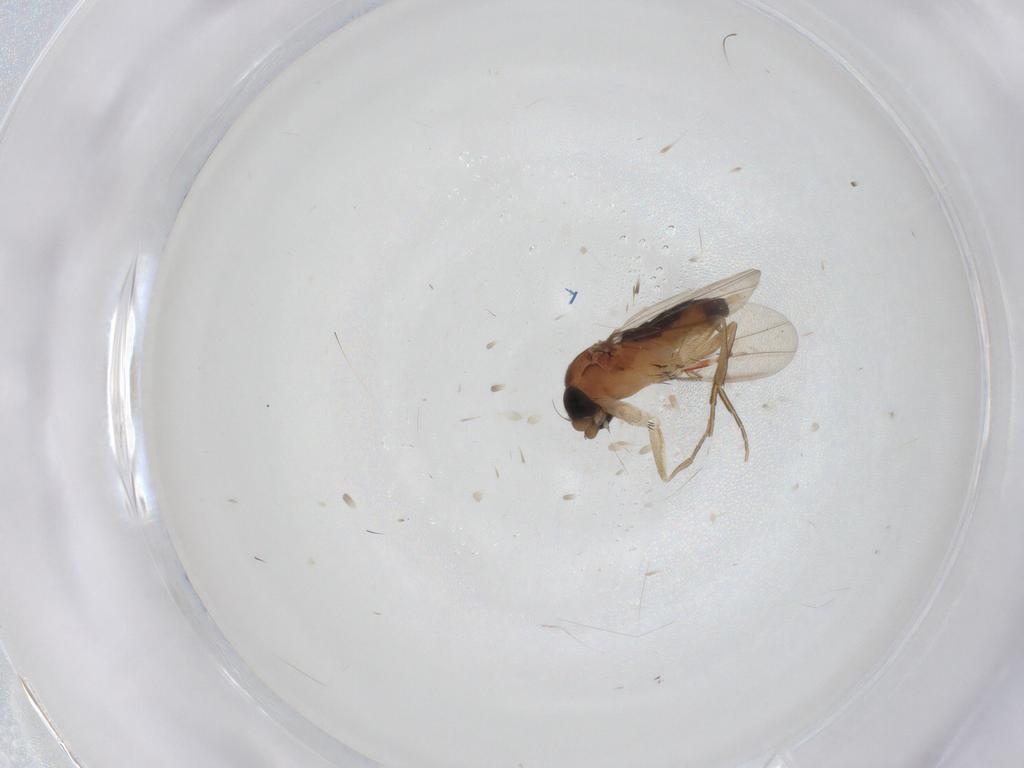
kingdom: Animalia
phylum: Arthropoda
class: Insecta
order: Diptera
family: Phoridae
